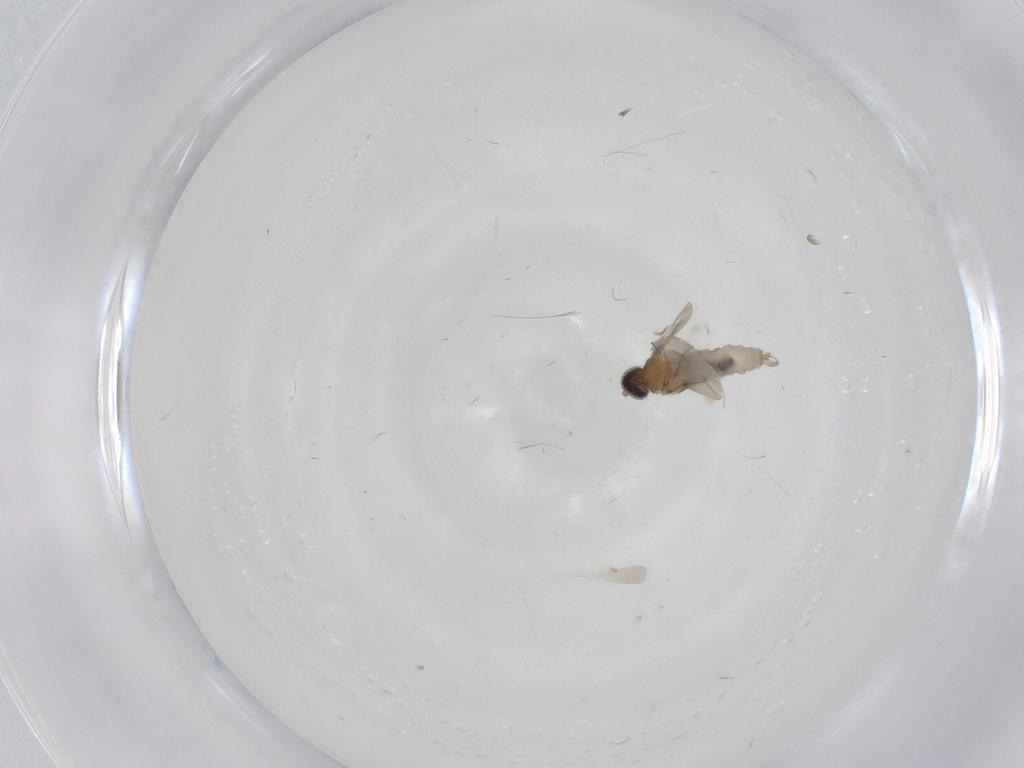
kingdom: Animalia
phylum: Arthropoda
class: Insecta
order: Diptera
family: Cecidomyiidae
